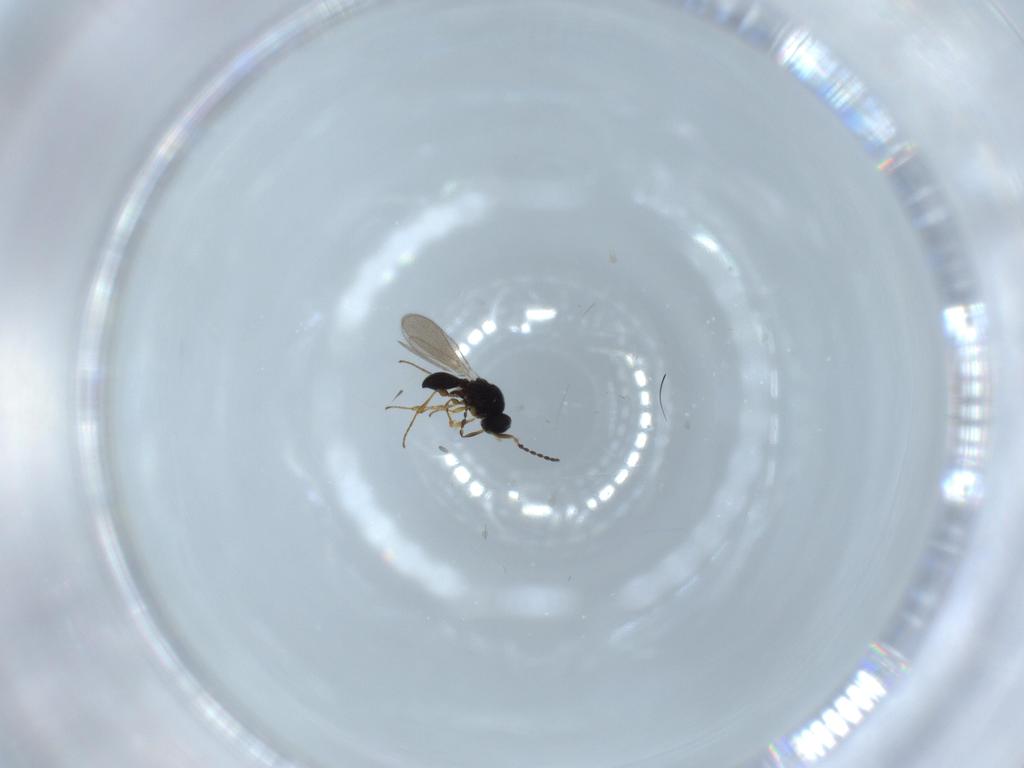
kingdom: Animalia
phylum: Arthropoda
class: Insecta
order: Hymenoptera
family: Platygastridae
